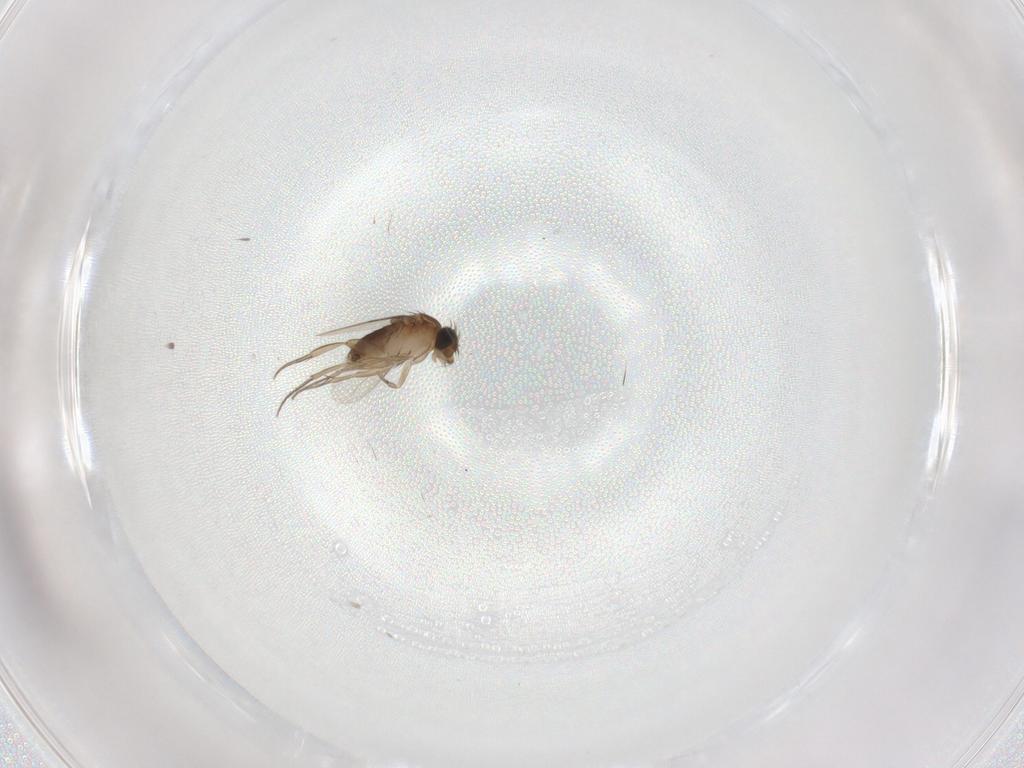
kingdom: Animalia
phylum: Arthropoda
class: Insecta
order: Diptera
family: Phoridae
